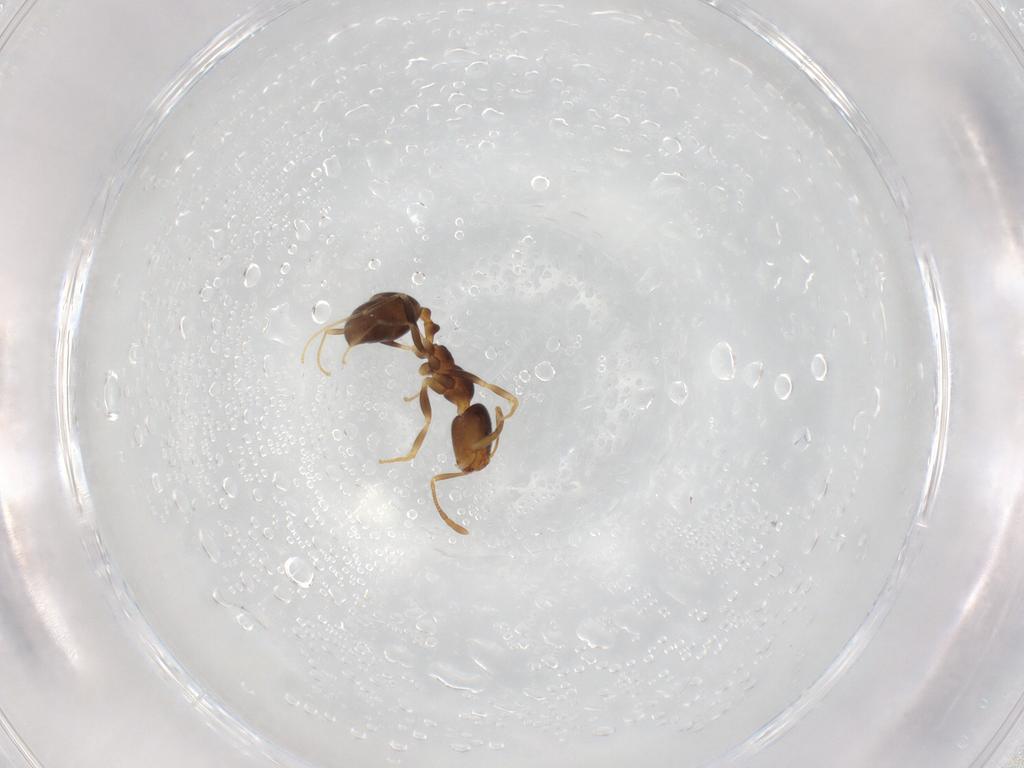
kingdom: Animalia
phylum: Arthropoda
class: Insecta
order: Hymenoptera
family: Formicidae
